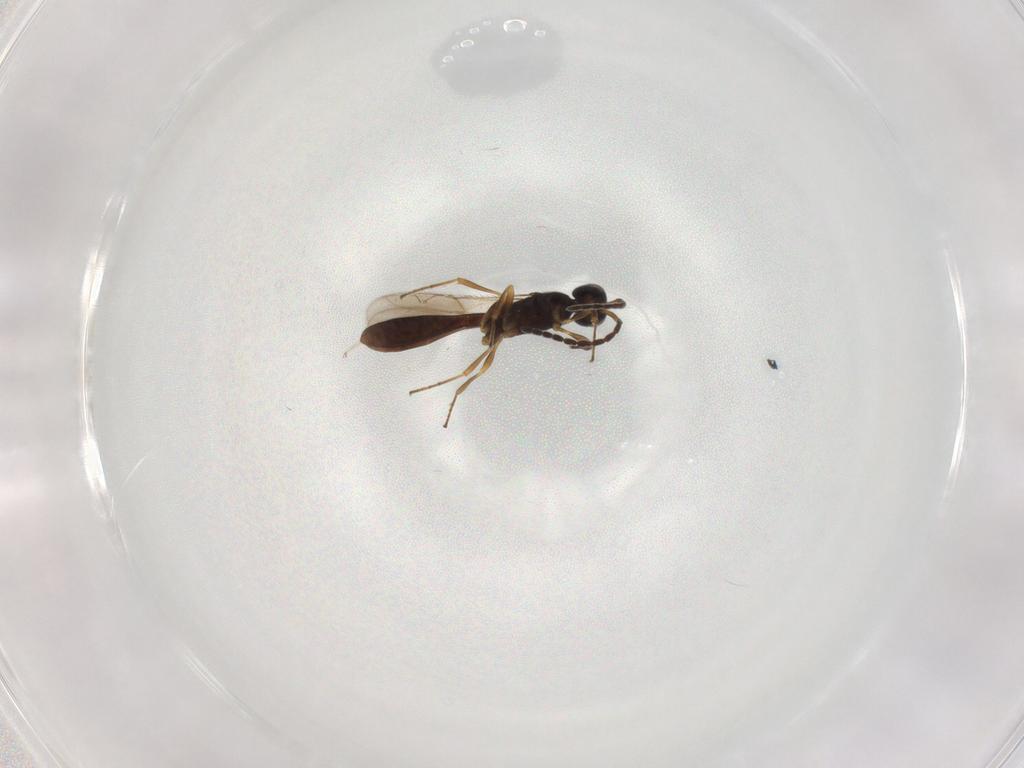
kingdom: Animalia
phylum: Arthropoda
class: Insecta
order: Hymenoptera
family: Scelionidae
